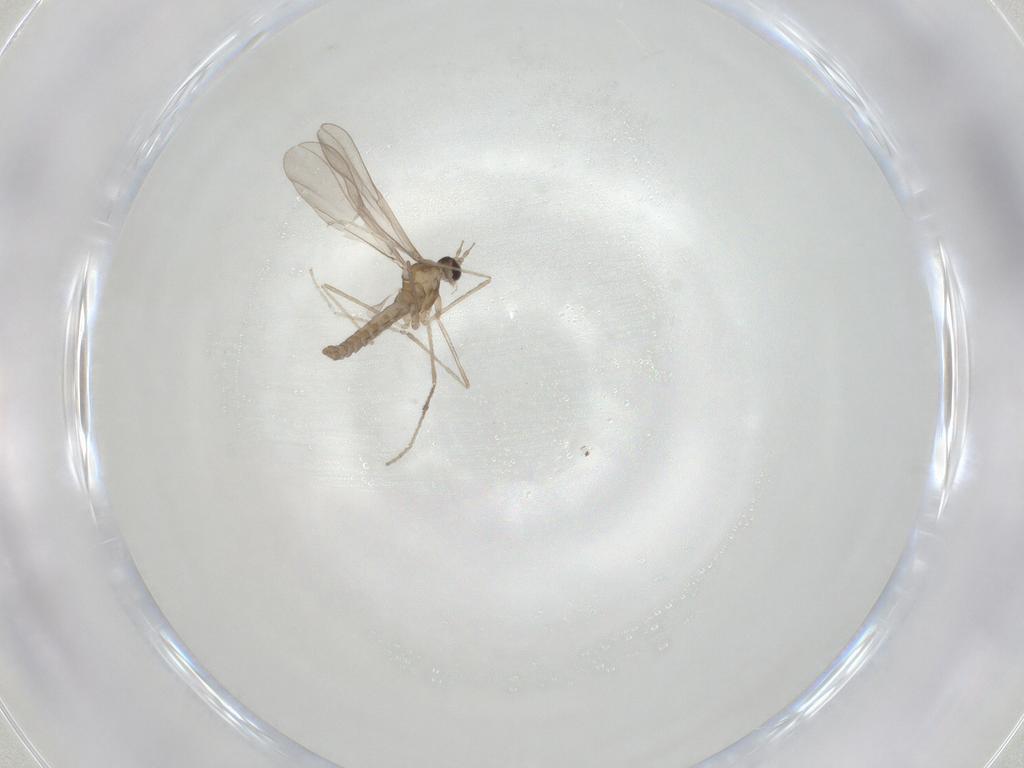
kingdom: Animalia
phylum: Arthropoda
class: Insecta
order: Diptera
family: Cecidomyiidae
